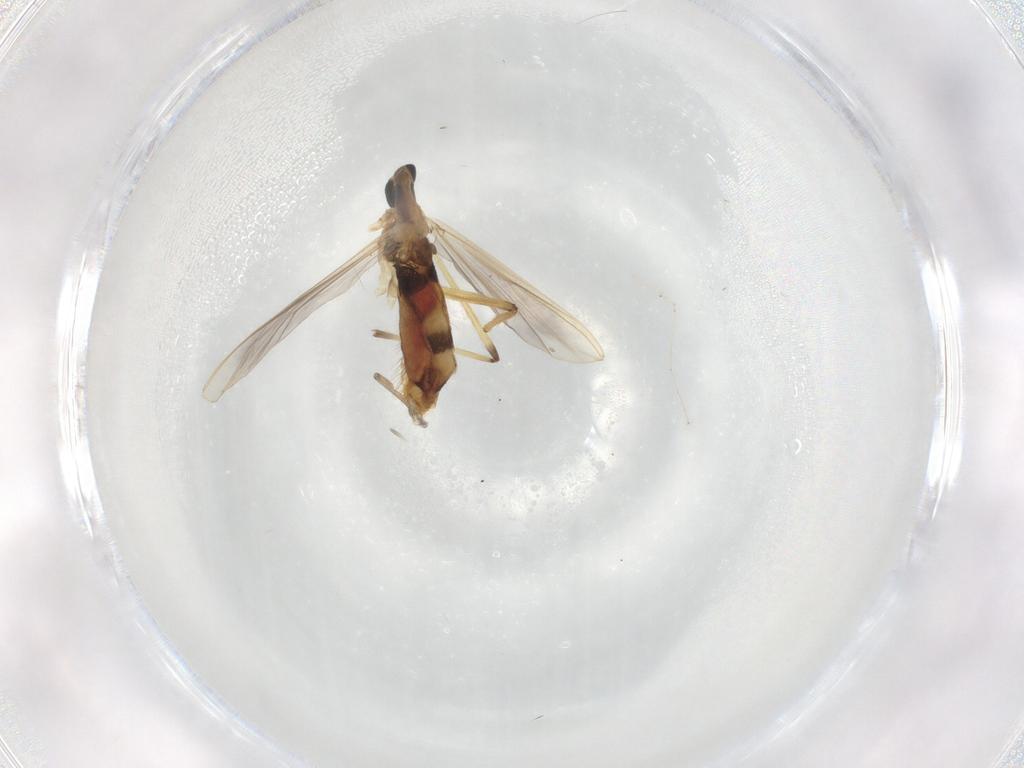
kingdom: Animalia
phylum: Arthropoda
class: Insecta
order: Diptera
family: Chironomidae
